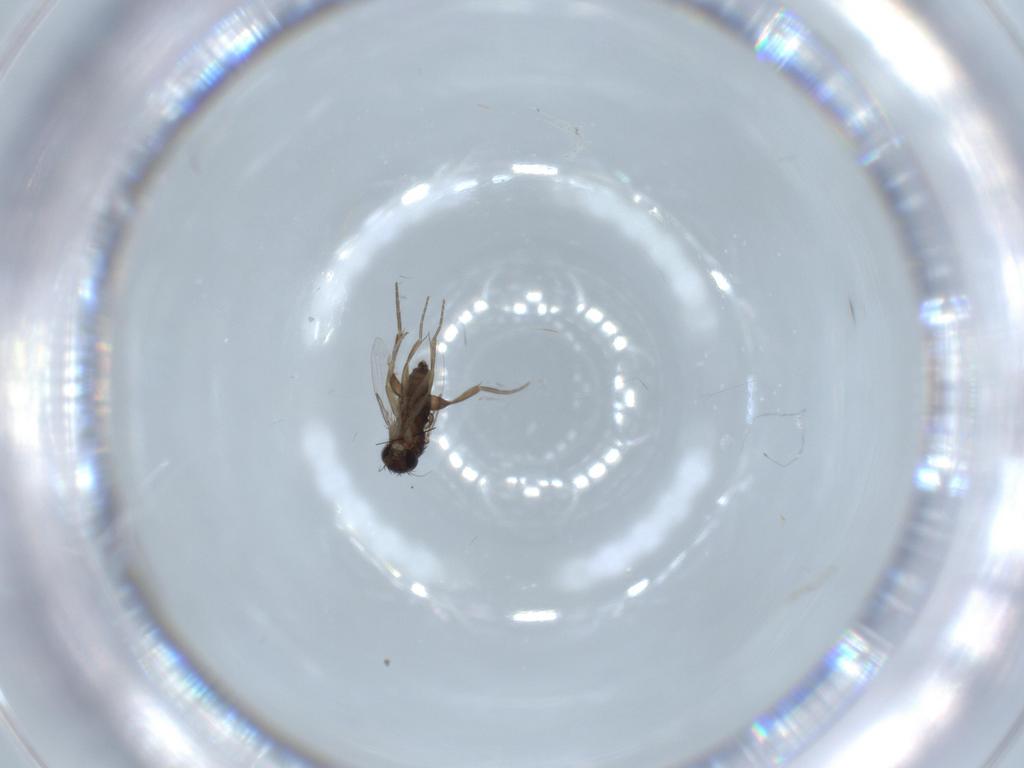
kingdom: Animalia
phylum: Arthropoda
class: Insecta
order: Diptera
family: Phoridae
